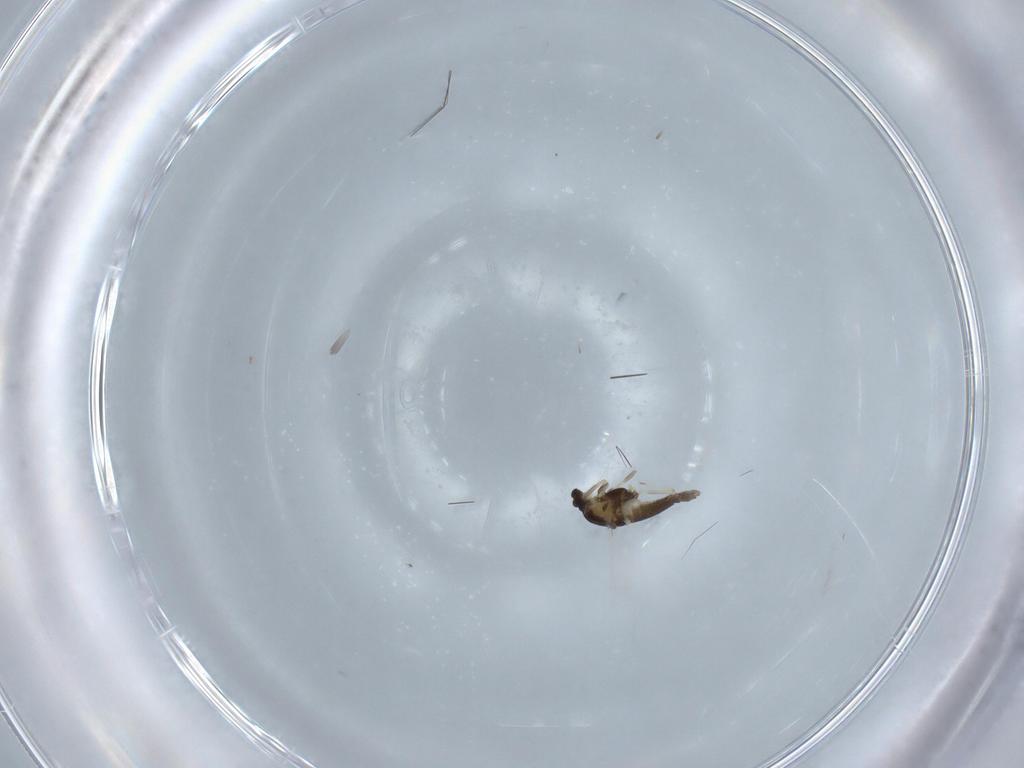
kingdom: Animalia
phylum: Arthropoda
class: Insecta
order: Diptera
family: Chironomidae
